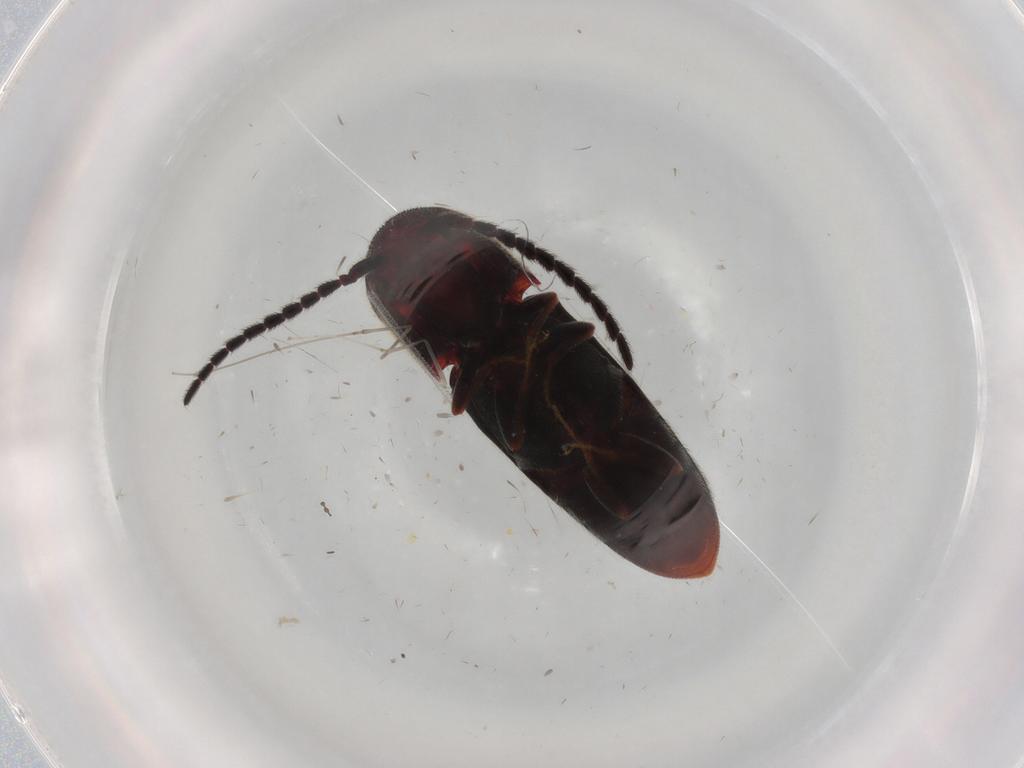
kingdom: Animalia
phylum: Arthropoda
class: Insecta
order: Coleoptera
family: Eucnemidae
